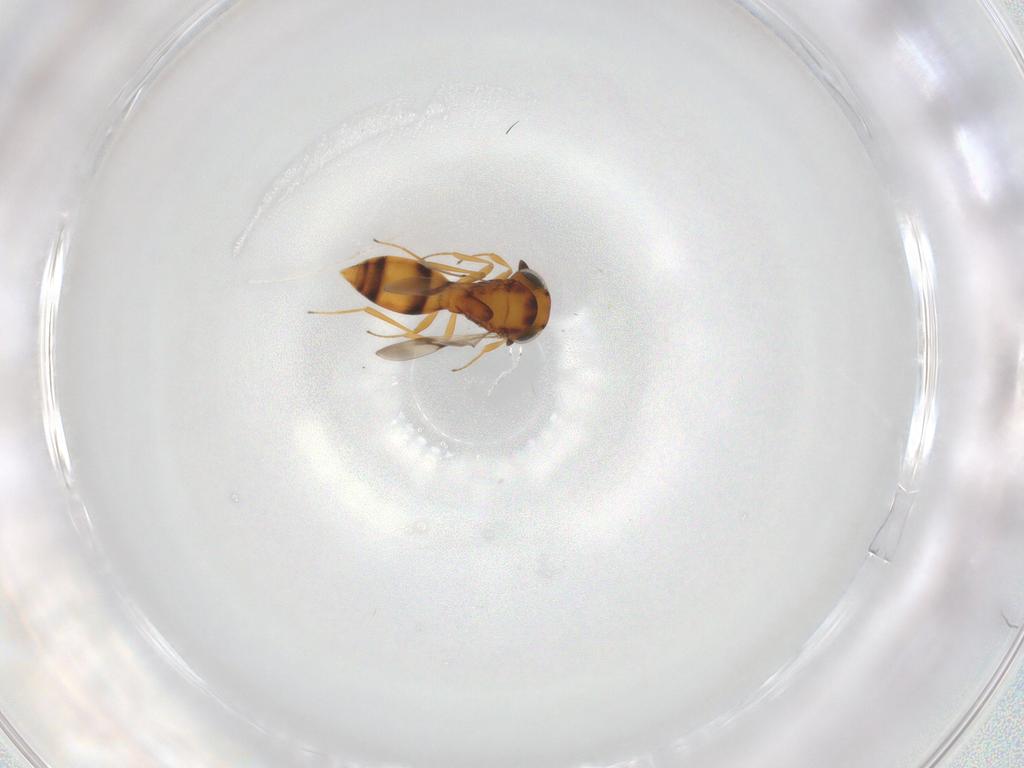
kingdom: Animalia
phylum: Arthropoda
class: Insecta
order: Hymenoptera
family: Scelionidae
